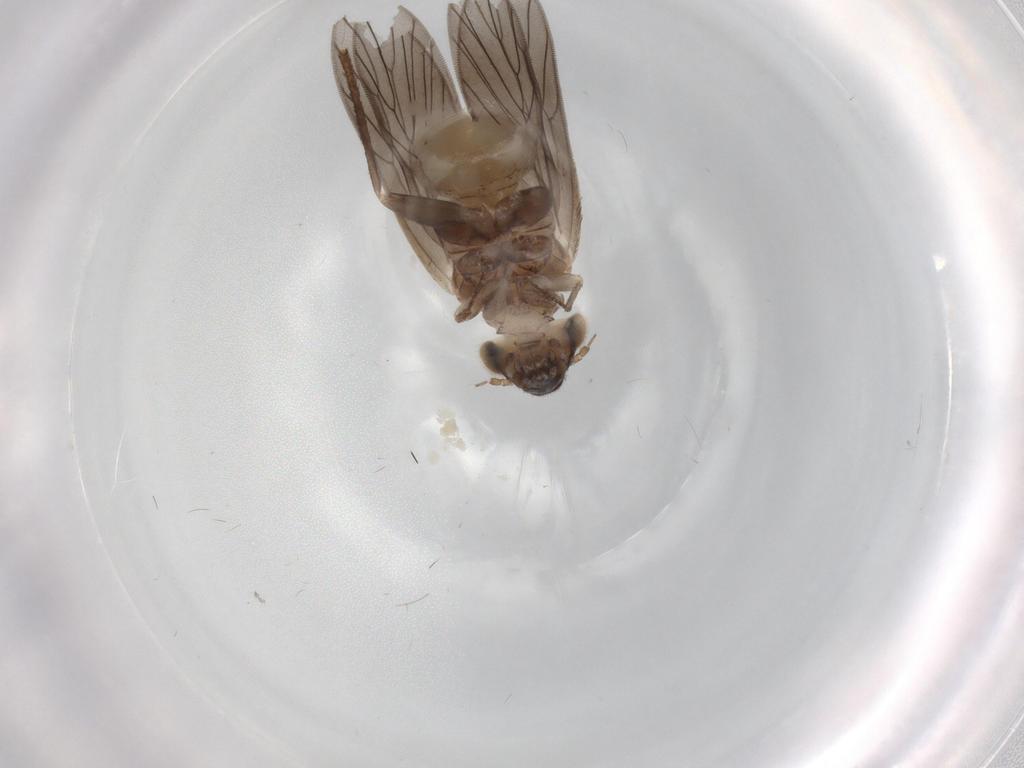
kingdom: Animalia
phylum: Arthropoda
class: Insecta
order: Psocodea
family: Lepidopsocidae
